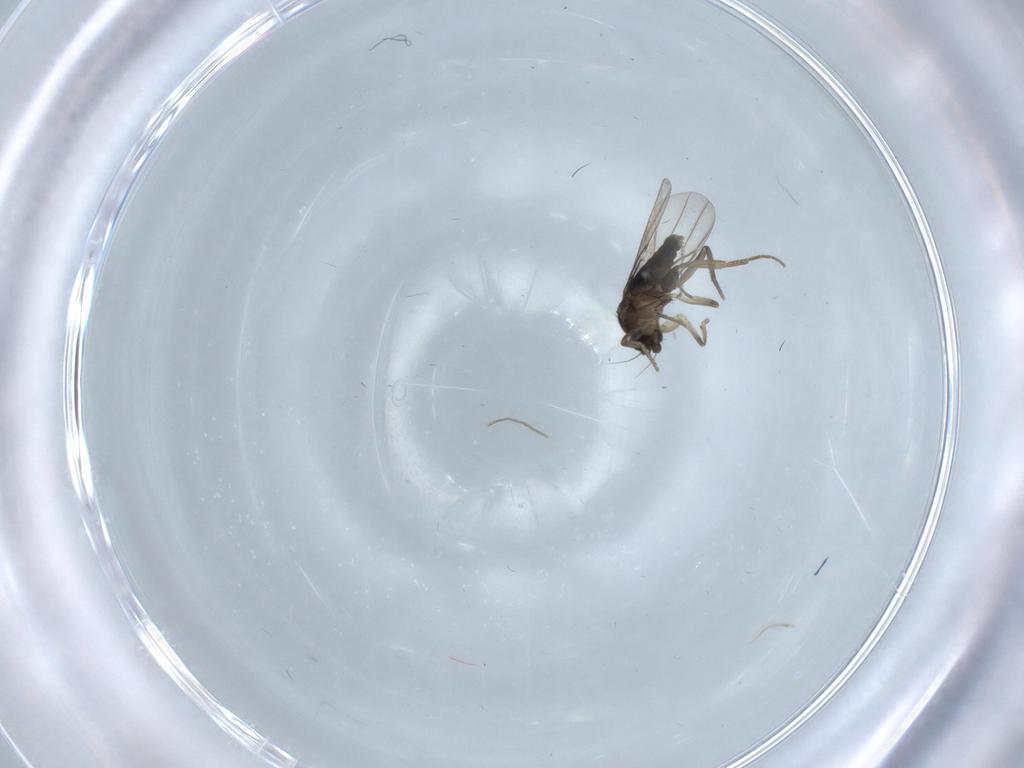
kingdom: Animalia
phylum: Arthropoda
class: Insecta
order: Diptera
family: Phoridae
